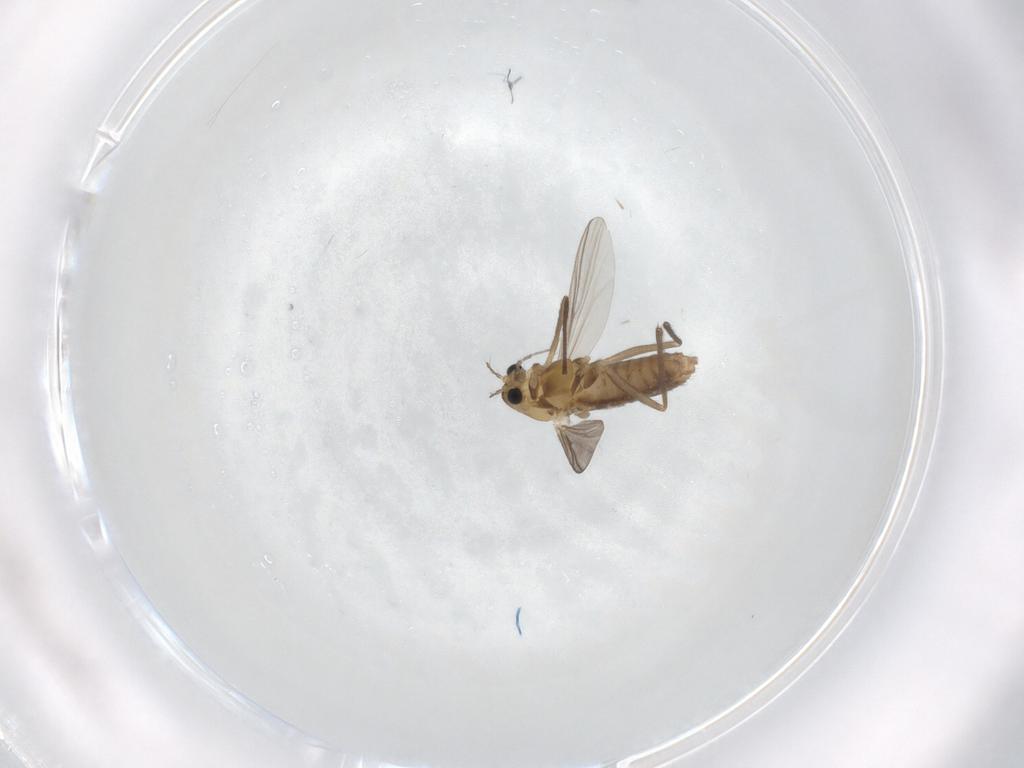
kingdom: Animalia
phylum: Arthropoda
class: Insecta
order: Diptera
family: Chironomidae
